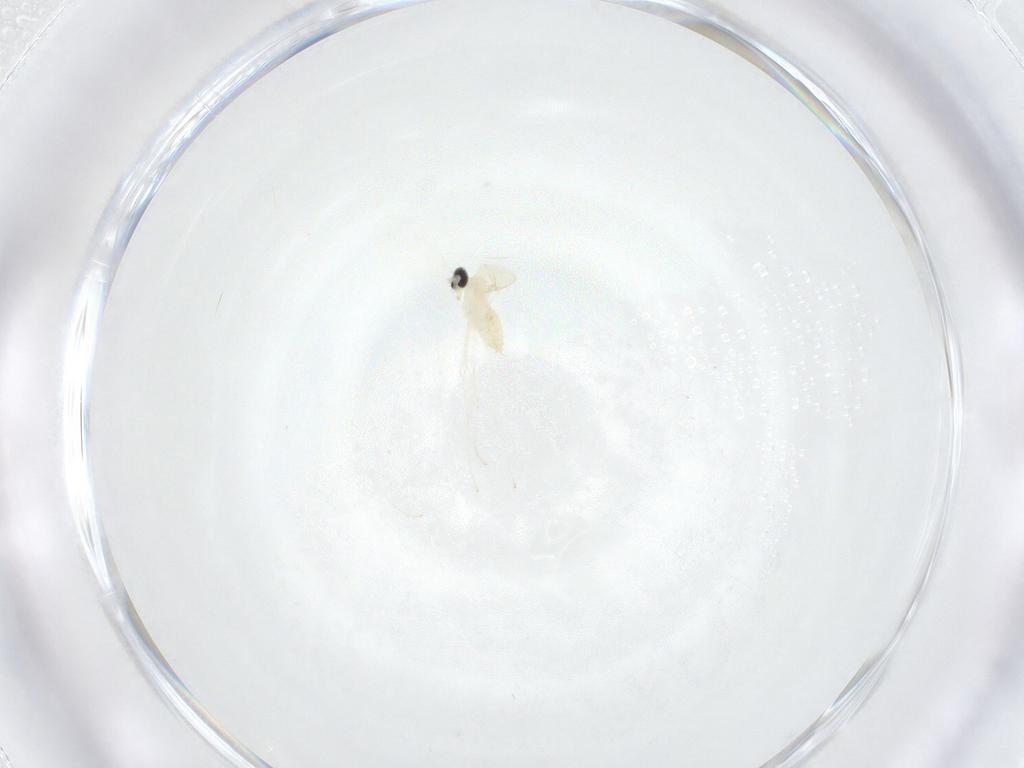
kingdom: Animalia
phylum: Arthropoda
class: Insecta
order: Diptera
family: Cecidomyiidae
